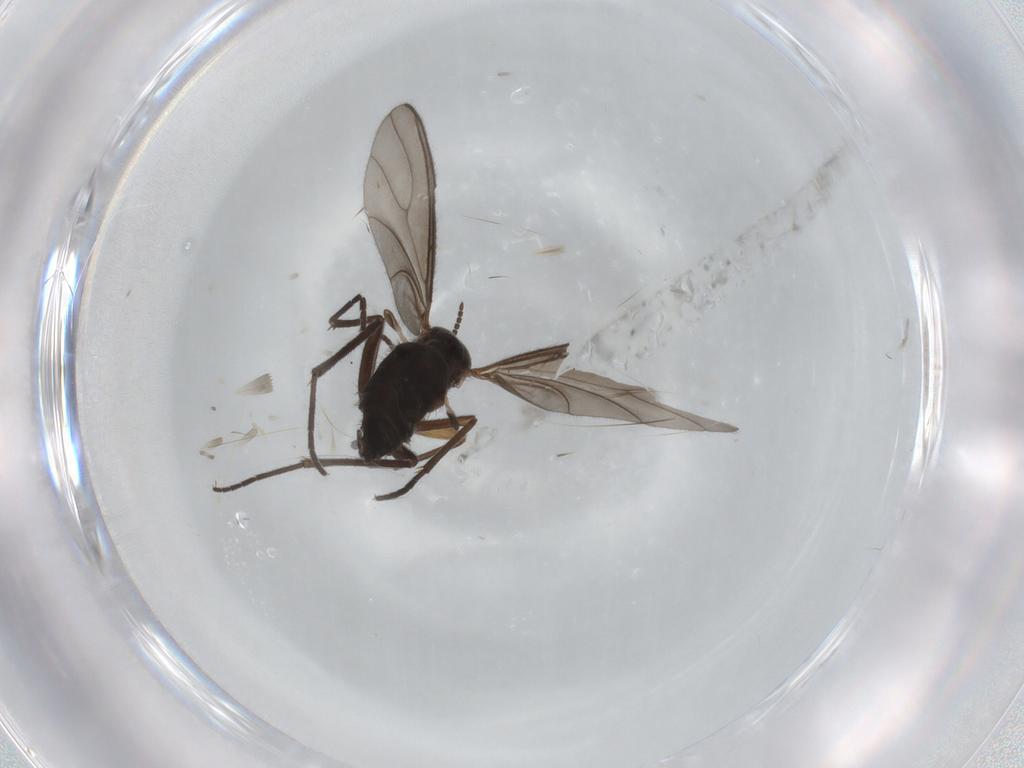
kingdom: Animalia
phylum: Arthropoda
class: Insecta
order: Diptera
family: Sciaridae
